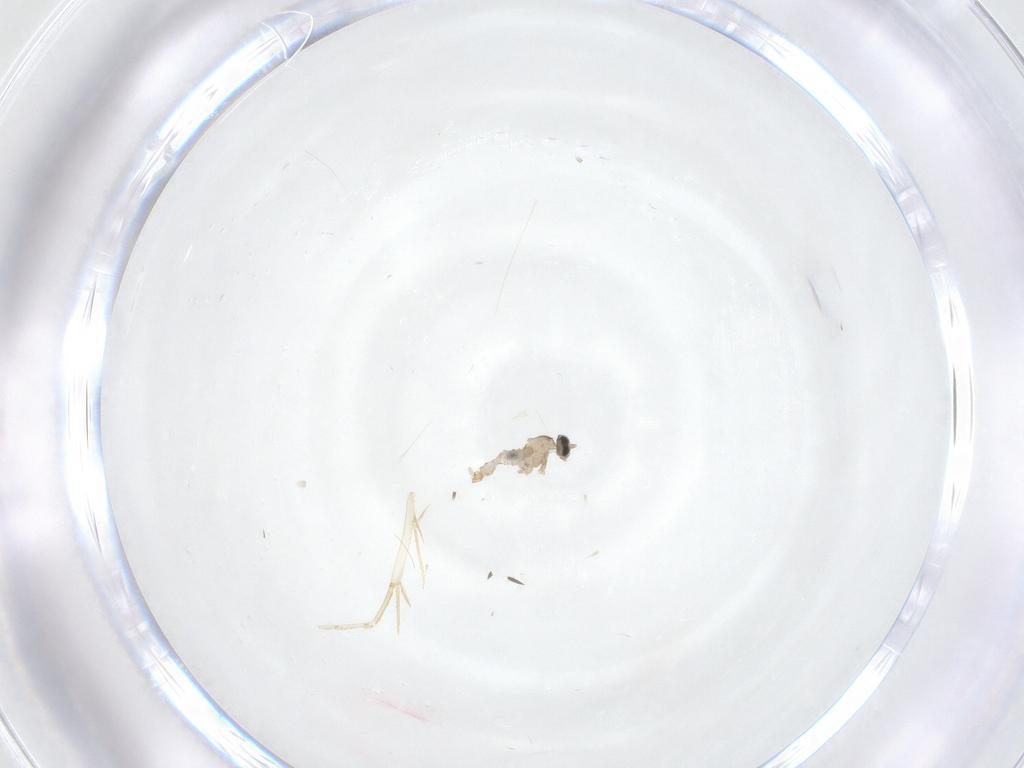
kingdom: Animalia
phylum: Arthropoda
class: Insecta
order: Diptera
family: Cecidomyiidae
